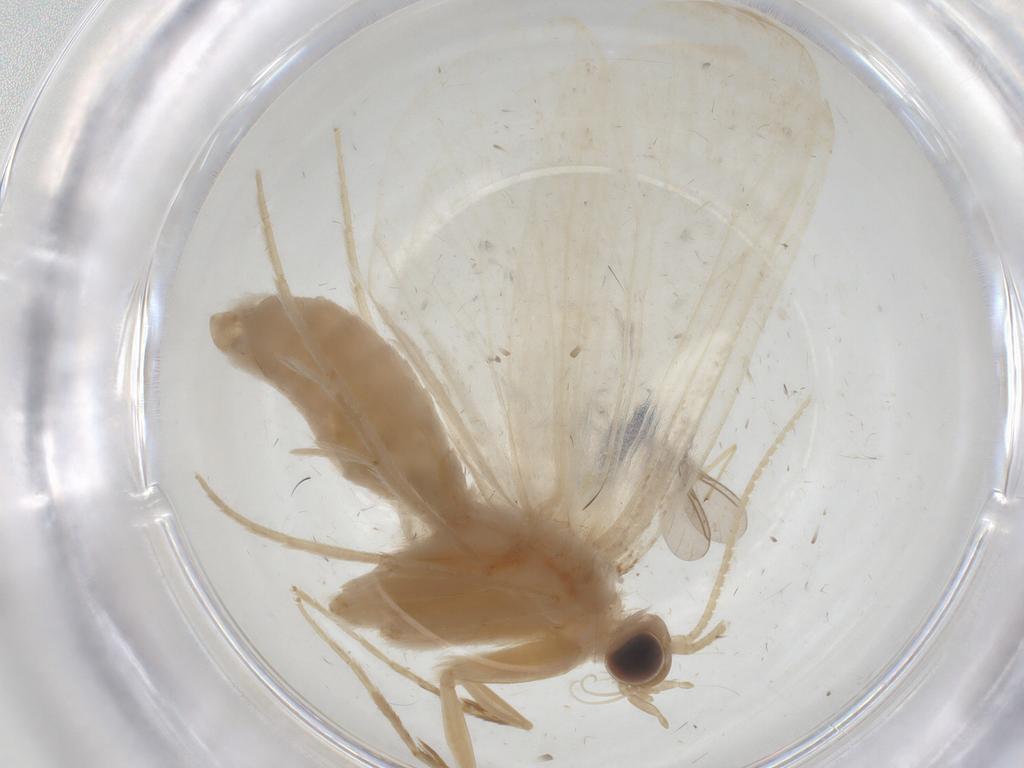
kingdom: Animalia
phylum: Arthropoda
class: Insecta
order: Lepidoptera
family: Crambidae
